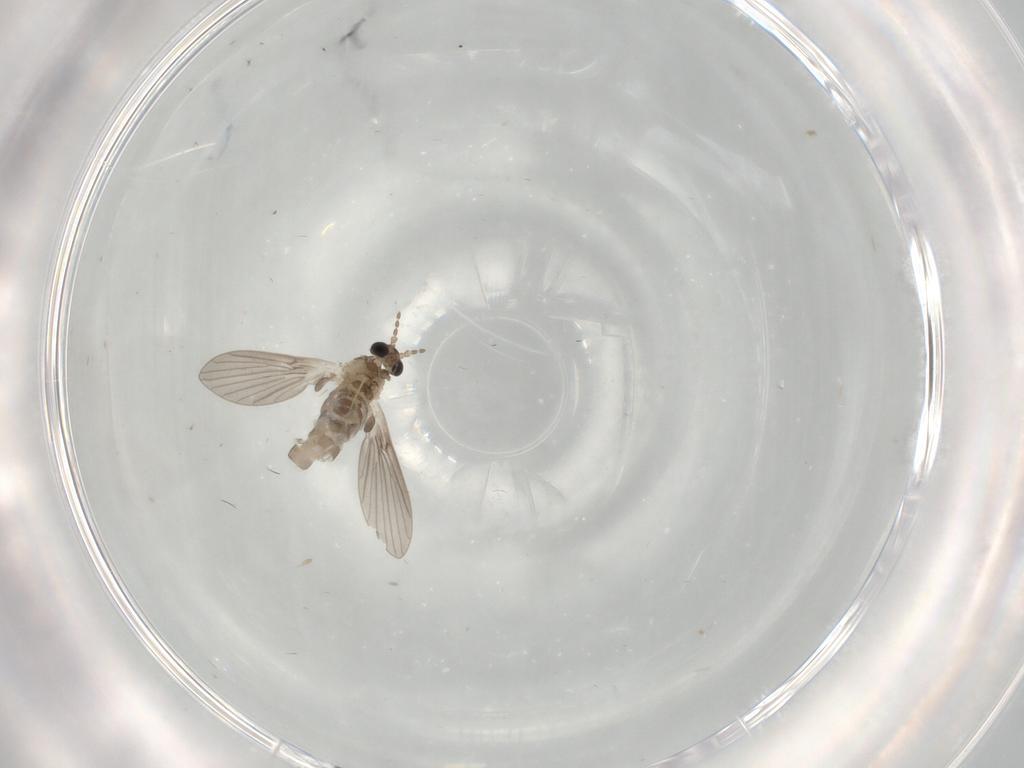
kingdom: Animalia
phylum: Arthropoda
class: Insecta
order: Diptera
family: Psychodidae
